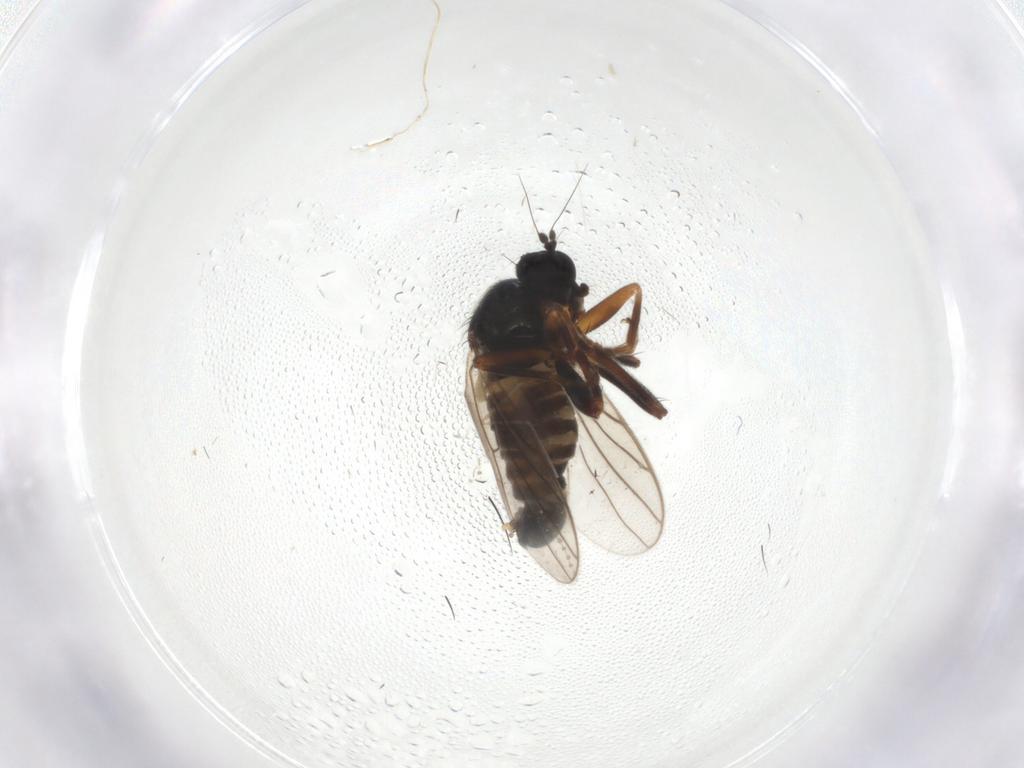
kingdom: Animalia
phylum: Arthropoda
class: Insecta
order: Diptera
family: Cecidomyiidae
